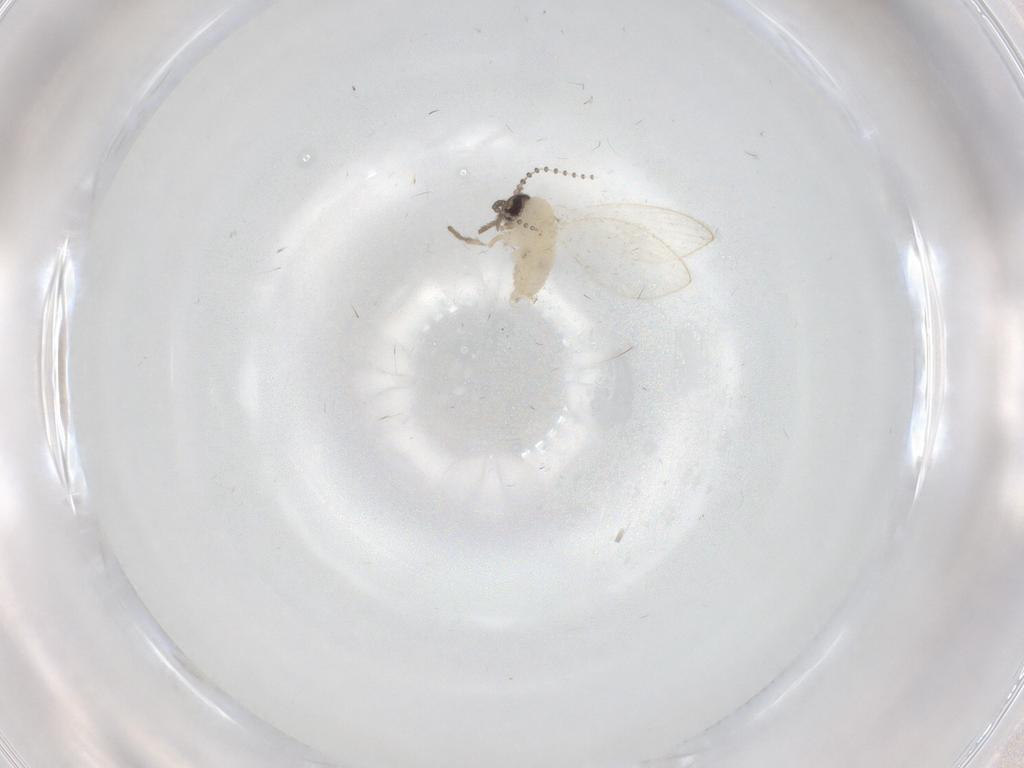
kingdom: Animalia
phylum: Arthropoda
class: Insecta
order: Diptera
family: Psychodidae
